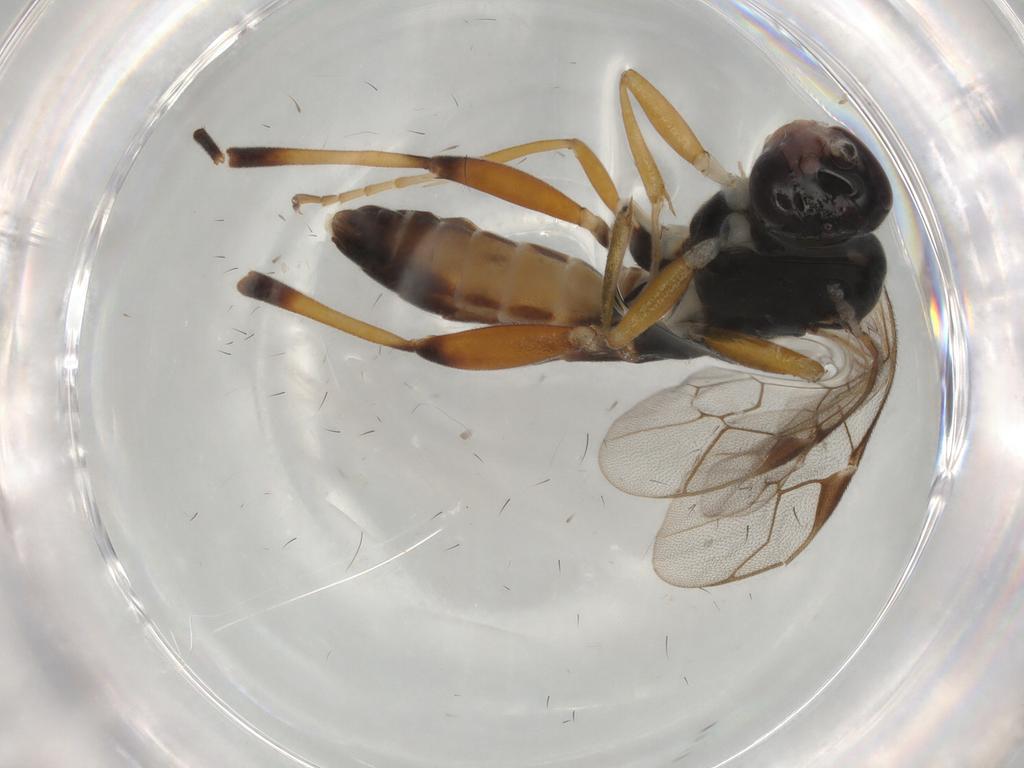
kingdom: Animalia
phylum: Arthropoda
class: Insecta
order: Hymenoptera
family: Ichneumonidae
